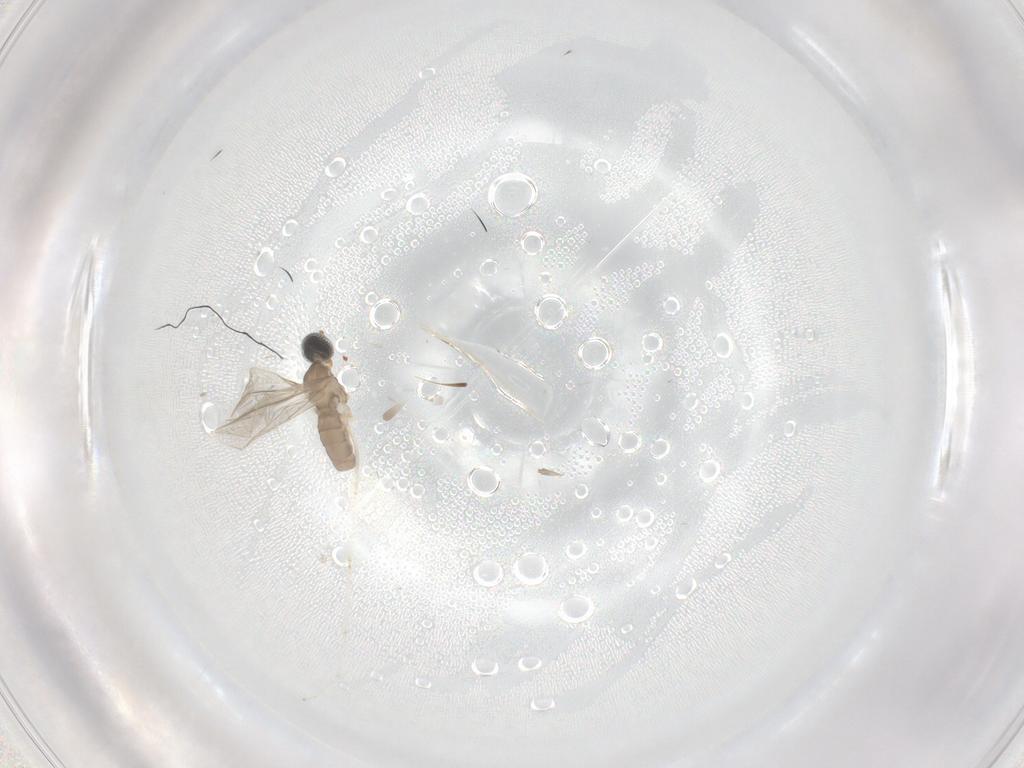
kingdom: Animalia
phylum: Arthropoda
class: Insecta
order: Diptera
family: Cecidomyiidae
